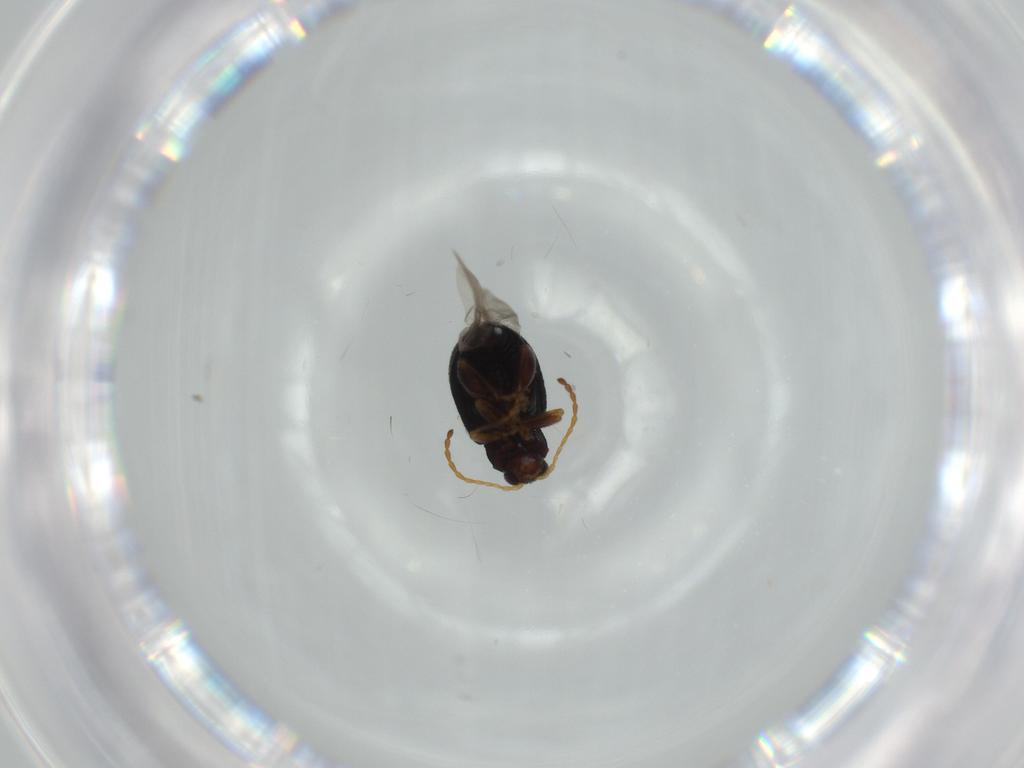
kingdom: Animalia
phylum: Arthropoda
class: Insecta
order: Coleoptera
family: Chrysomelidae
